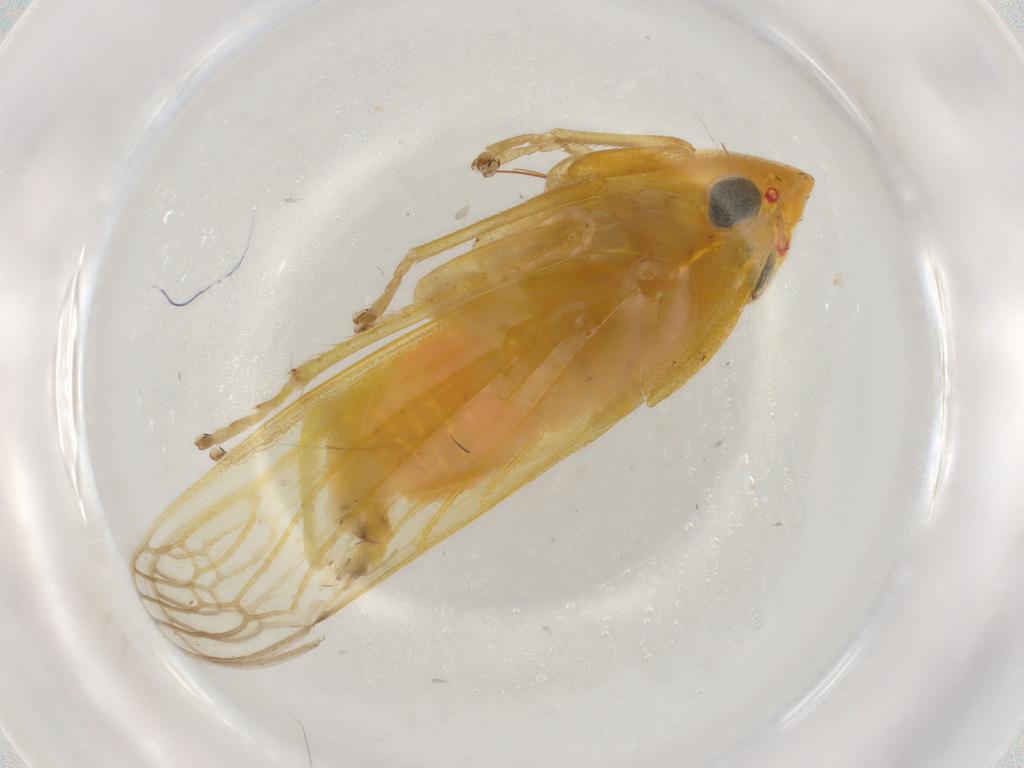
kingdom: Animalia
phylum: Arthropoda
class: Insecta
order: Hemiptera
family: Cicadellidae
